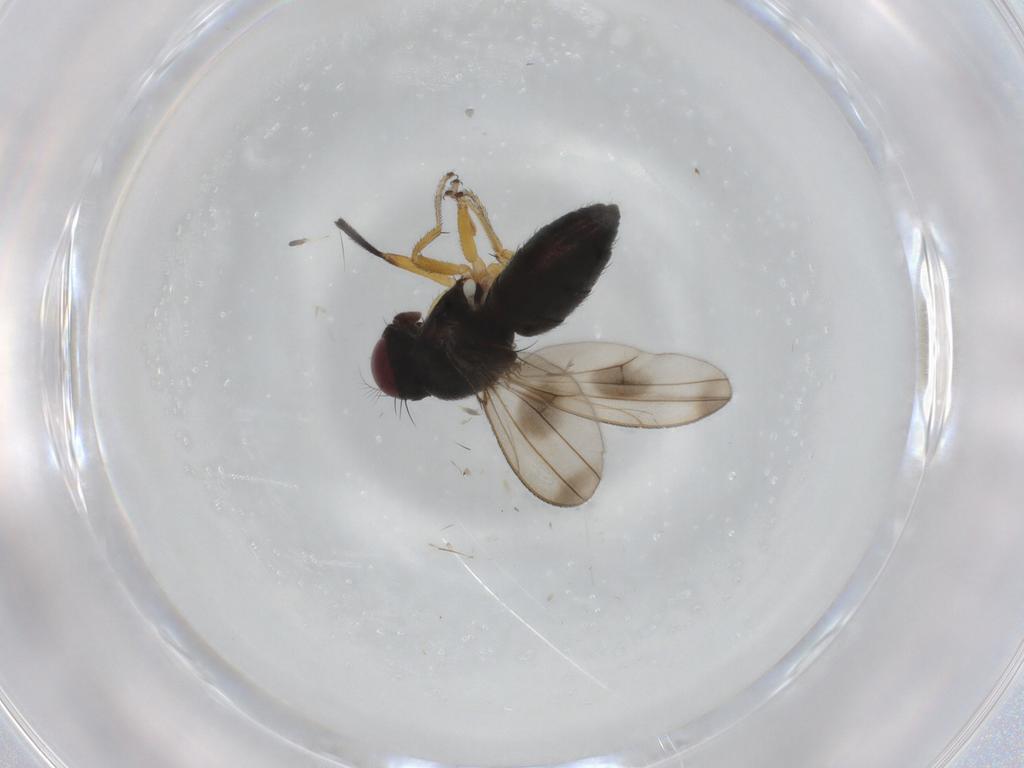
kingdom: Animalia
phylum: Arthropoda
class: Insecta
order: Diptera
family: Ephydridae
